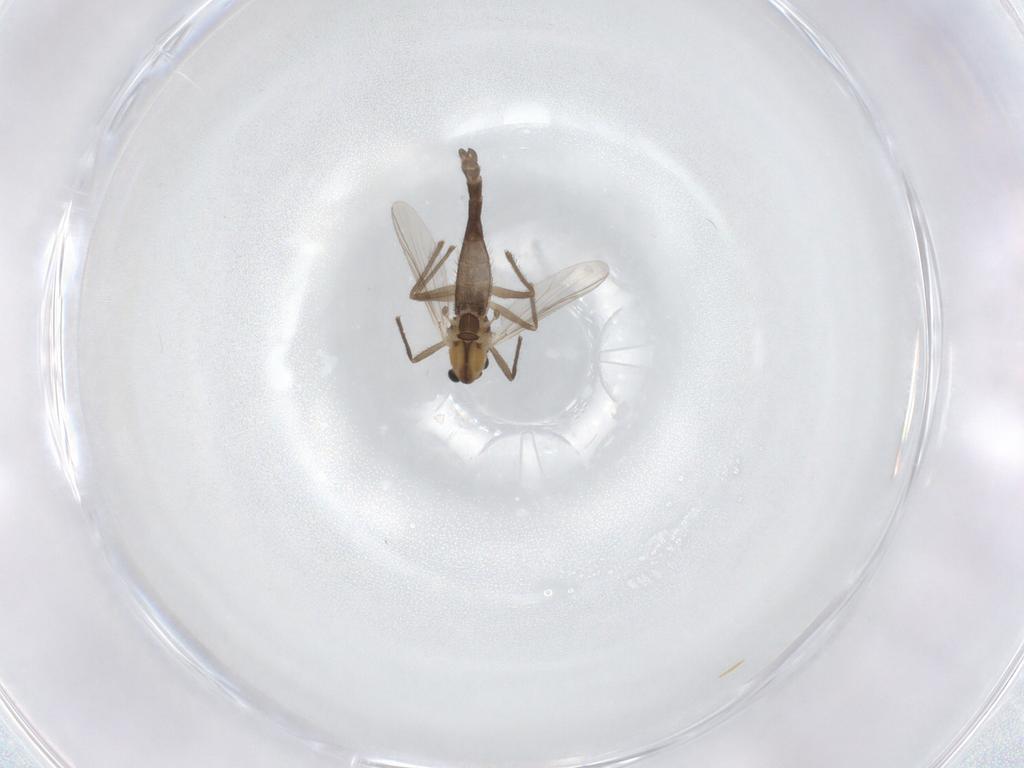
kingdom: Animalia
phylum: Arthropoda
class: Insecta
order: Diptera
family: Chironomidae
